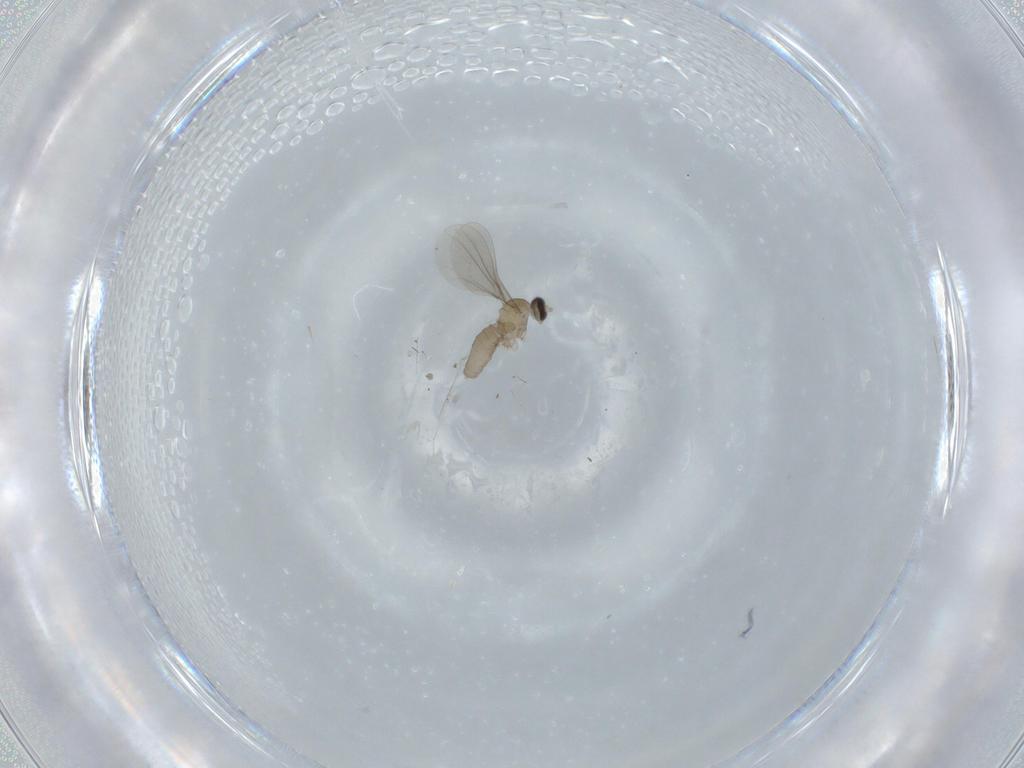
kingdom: Animalia
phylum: Arthropoda
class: Insecta
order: Diptera
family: Cecidomyiidae
